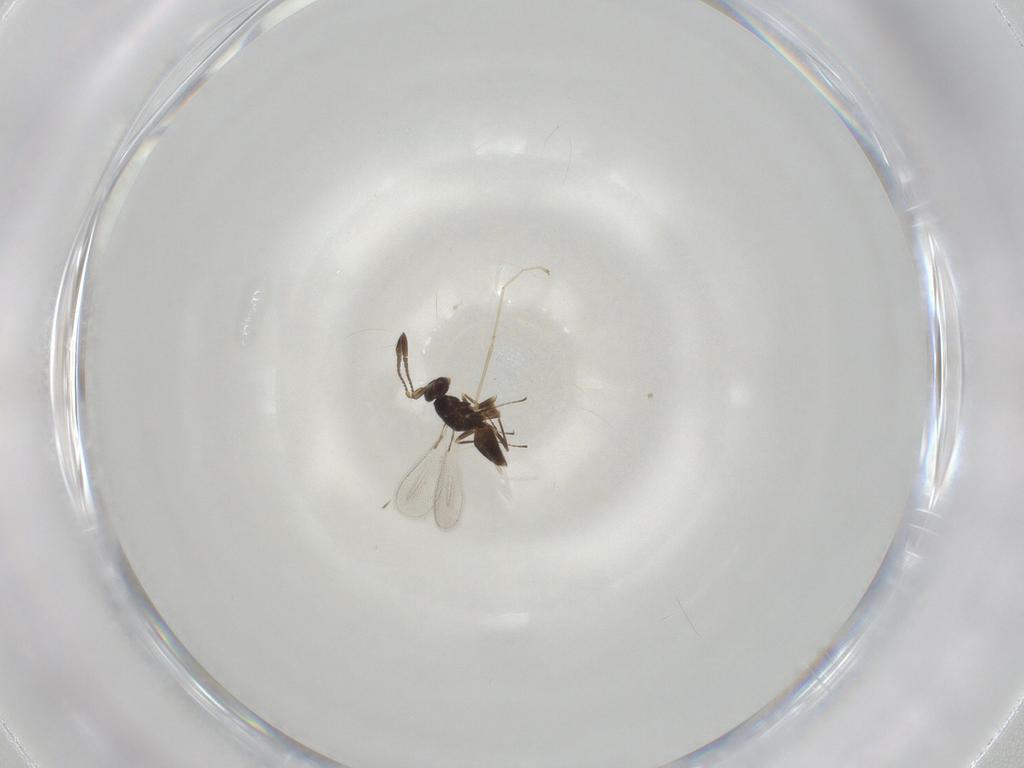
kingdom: Animalia
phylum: Arthropoda
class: Insecta
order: Hymenoptera
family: Mymaridae
